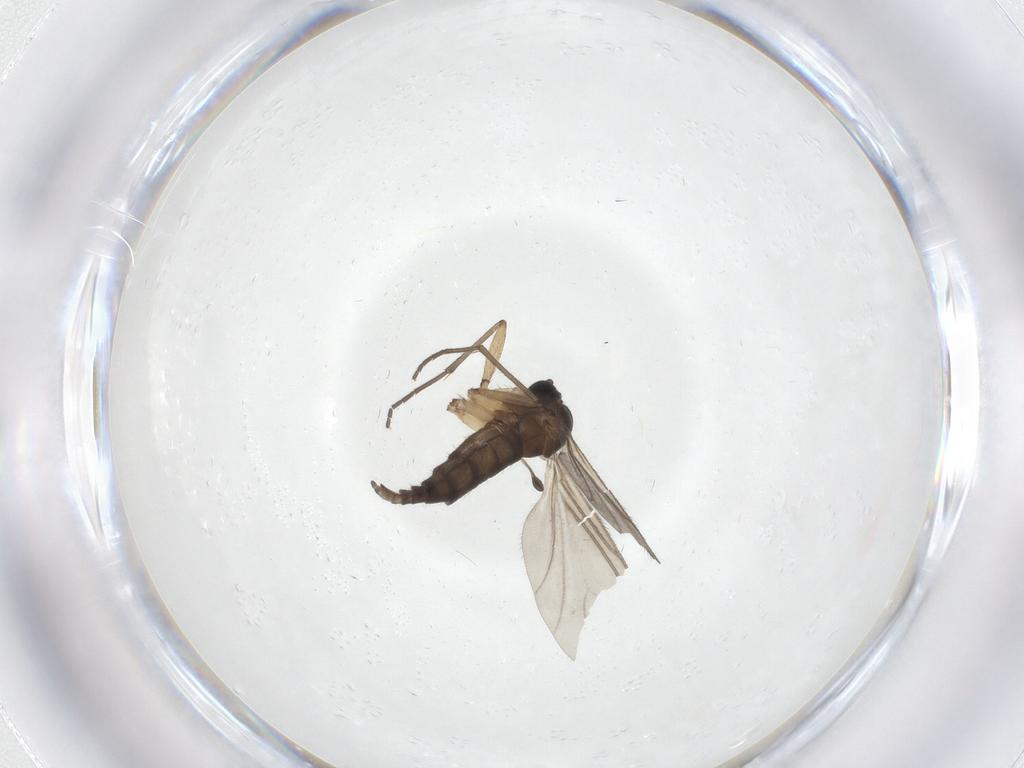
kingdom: Animalia
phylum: Arthropoda
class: Insecta
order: Diptera
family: Sciaridae
